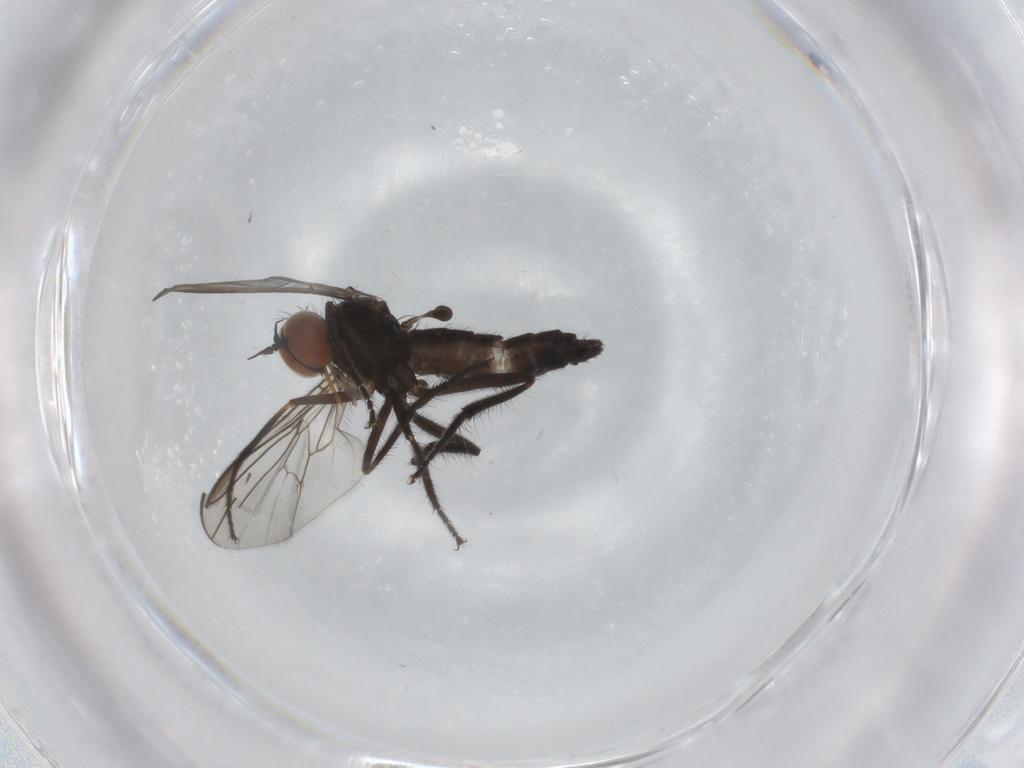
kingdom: Animalia
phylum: Arthropoda
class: Insecta
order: Diptera
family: Empididae
